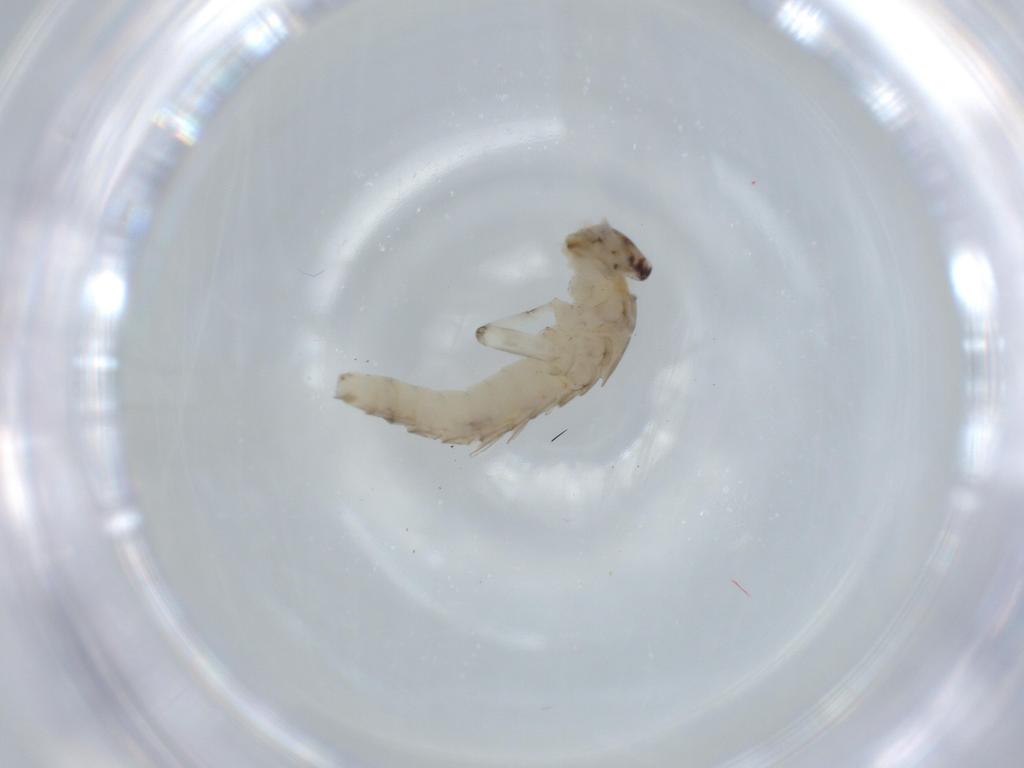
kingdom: Animalia
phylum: Arthropoda
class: Insecta
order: Ephemeroptera
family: Baetidae
